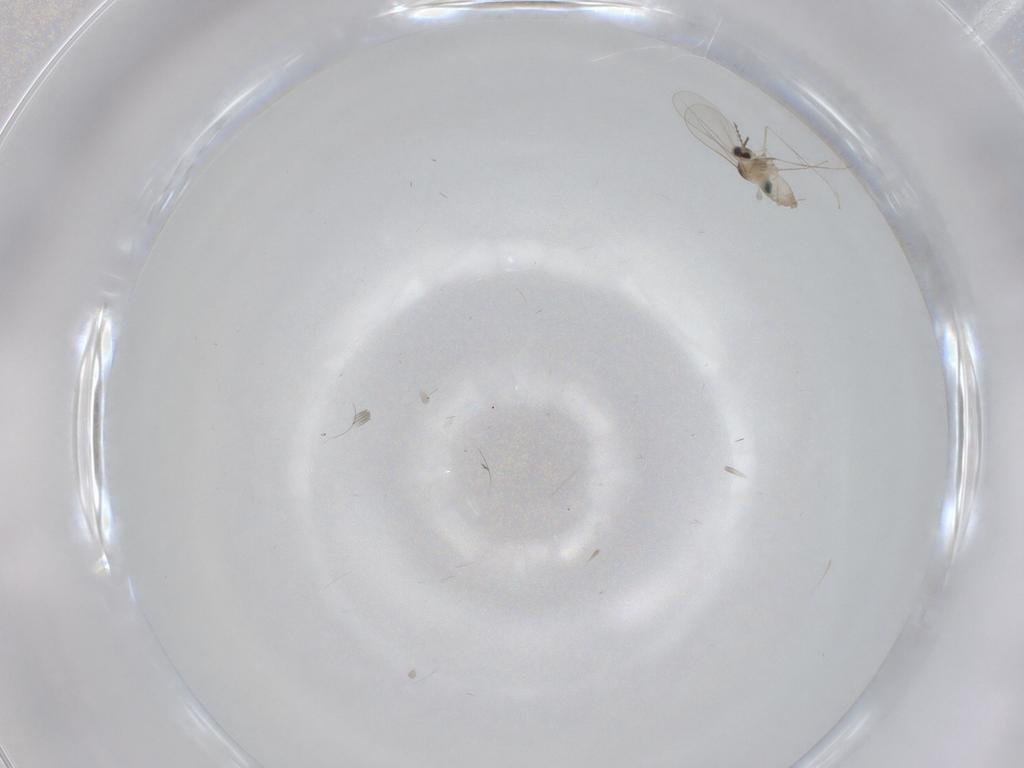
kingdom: Animalia
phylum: Arthropoda
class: Insecta
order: Diptera
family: Cecidomyiidae
